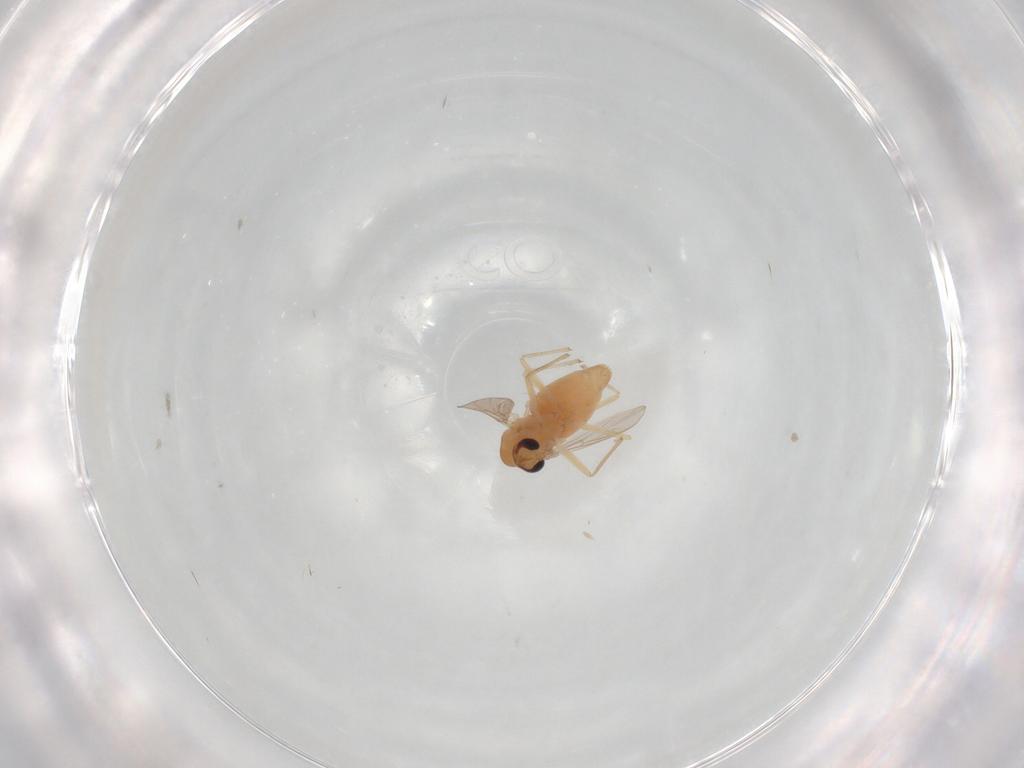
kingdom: Animalia
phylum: Arthropoda
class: Insecta
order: Diptera
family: Chironomidae
